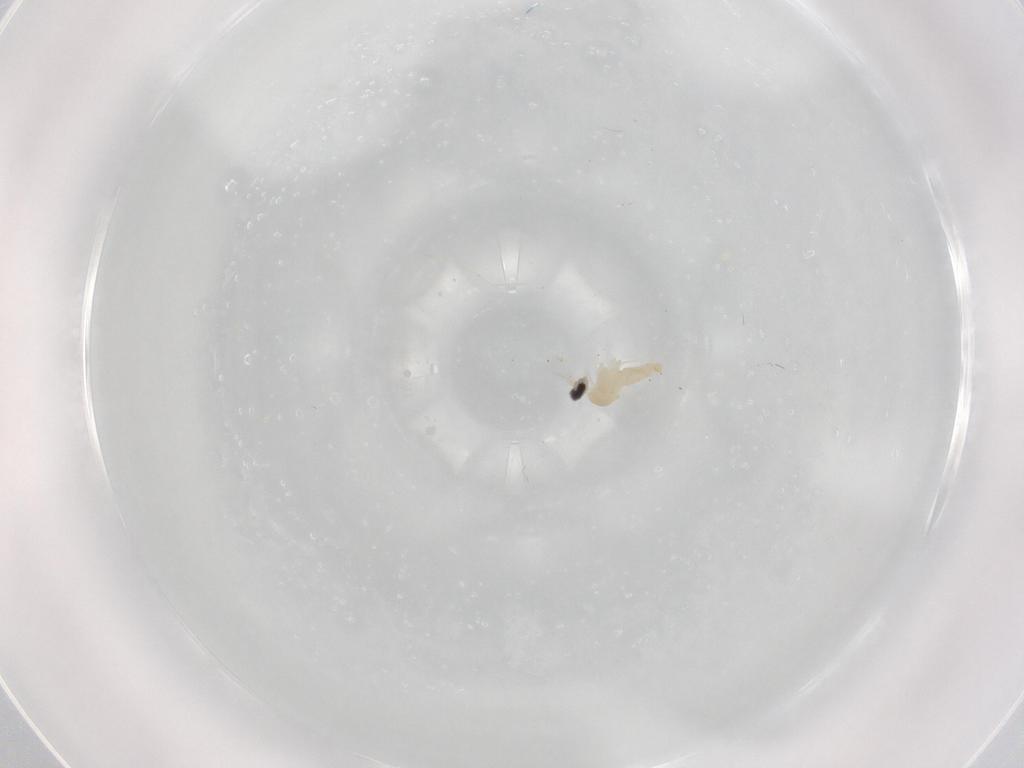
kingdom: Animalia
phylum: Arthropoda
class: Insecta
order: Diptera
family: Cecidomyiidae
